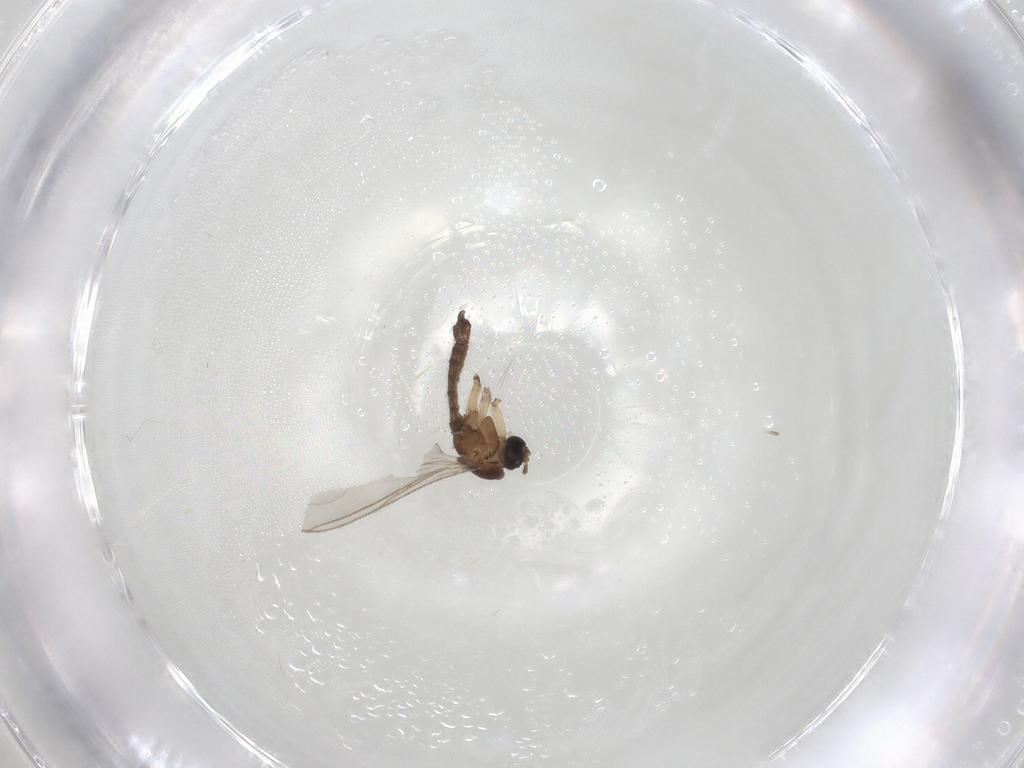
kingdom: Animalia
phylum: Arthropoda
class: Insecta
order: Diptera
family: Sciaridae
